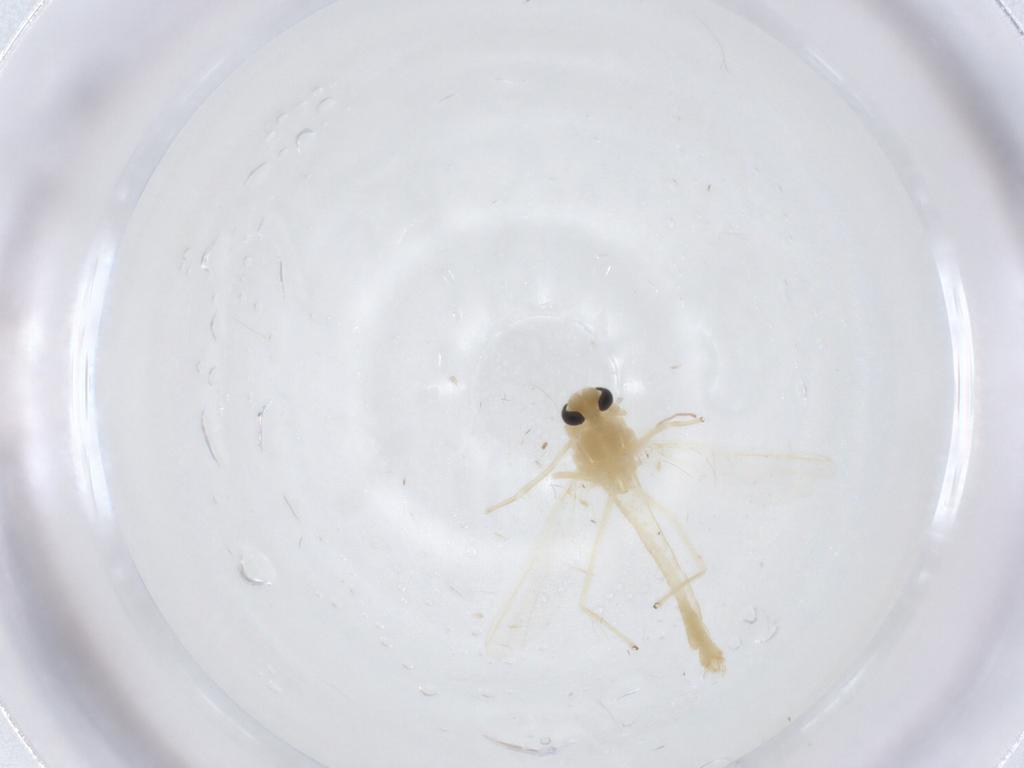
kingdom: Animalia
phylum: Arthropoda
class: Insecta
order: Diptera
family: Chironomidae
